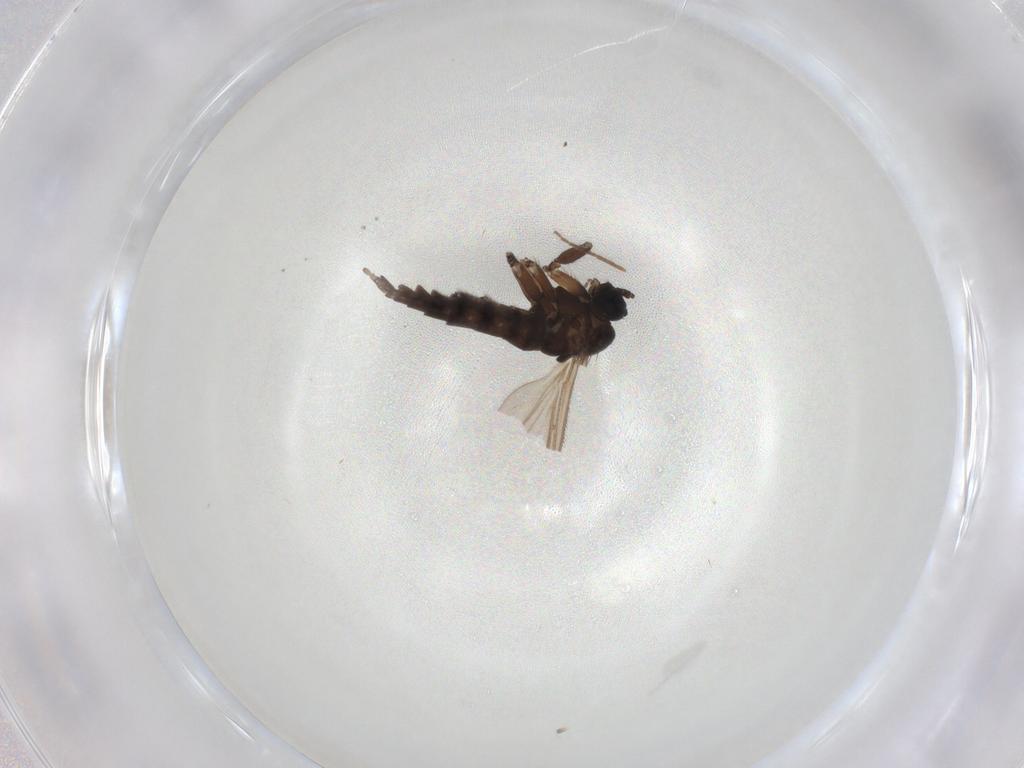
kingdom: Animalia
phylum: Arthropoda
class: Insecta
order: Diptera
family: Sciaridae
